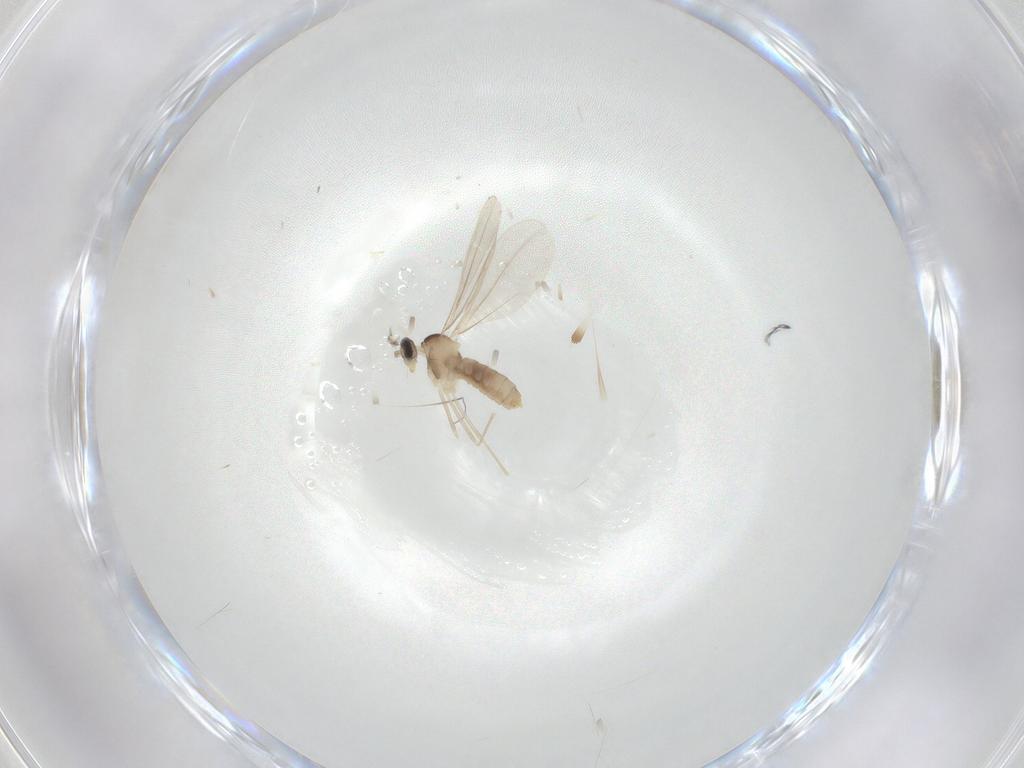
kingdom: Animalia
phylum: Arthropoda
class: Insecta
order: Diptera
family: Cecidomyiidae
